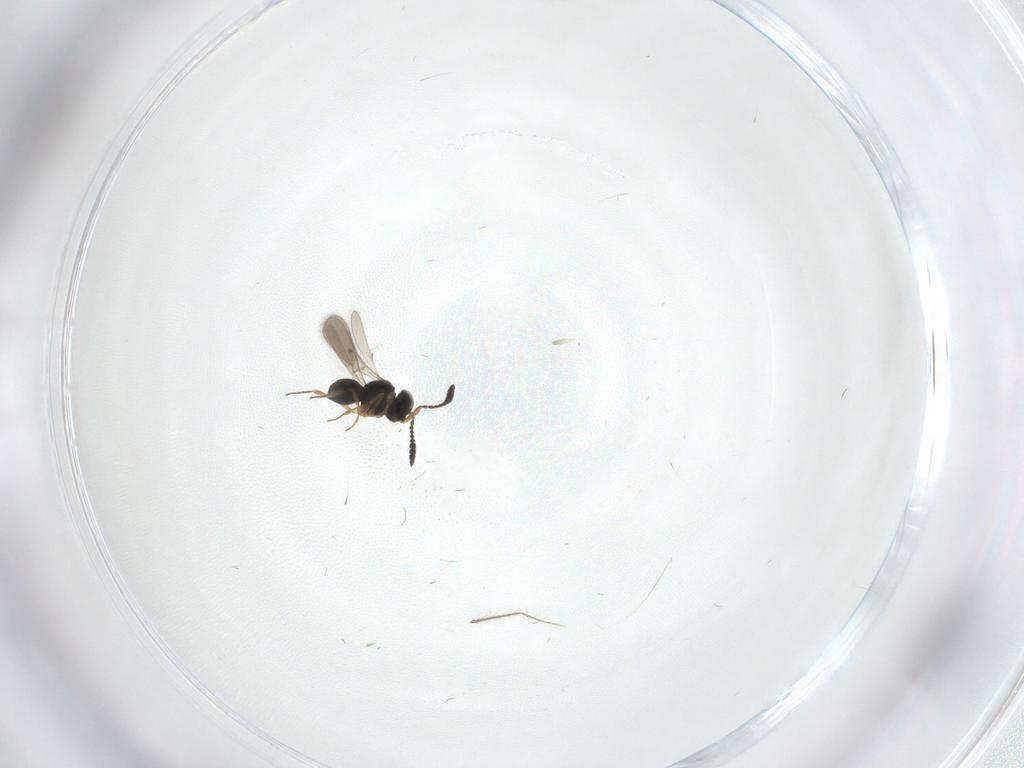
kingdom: Animalia
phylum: Arthropoda
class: Insecta
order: Hymenoptera
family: Scelionidae
